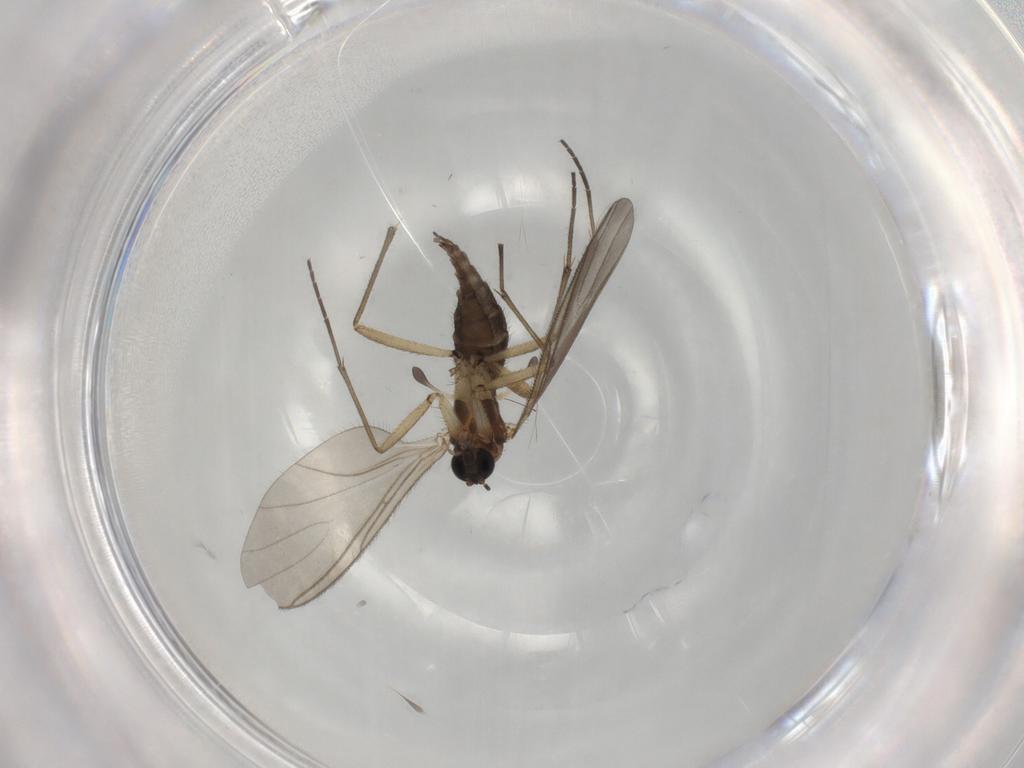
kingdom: Animalia
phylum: Arthropoda
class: Insecta
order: Diptera
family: Sciaridae
